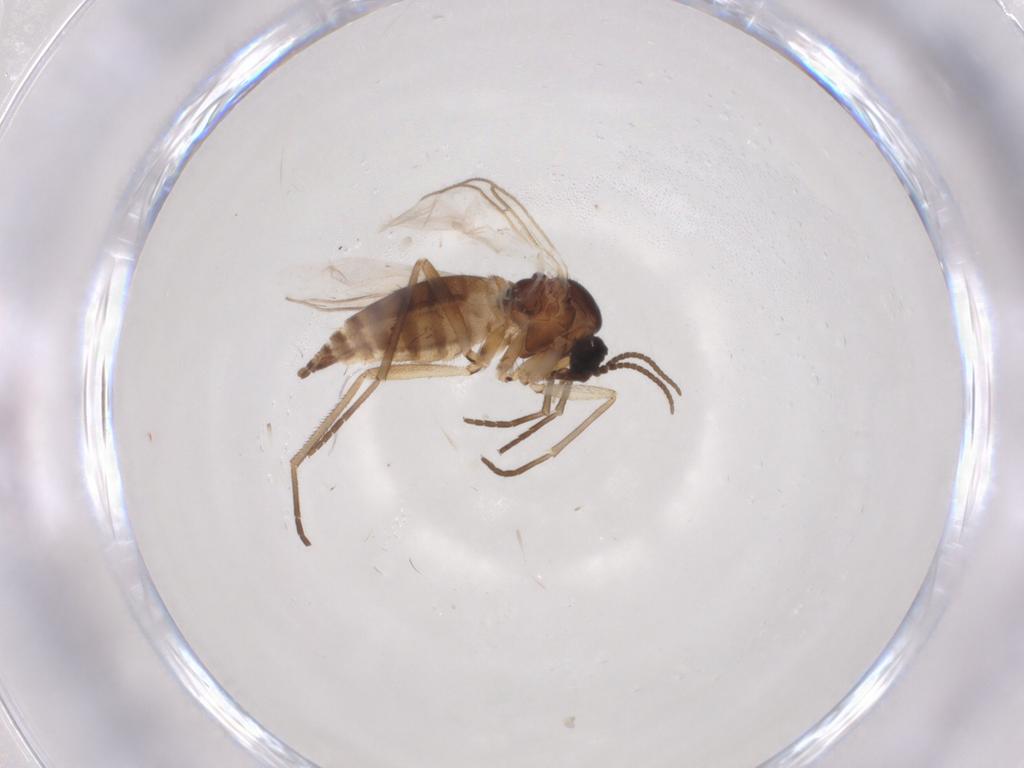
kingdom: Animalia
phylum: Arthropoda
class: Insecta
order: Diptera
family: Sciaridae
